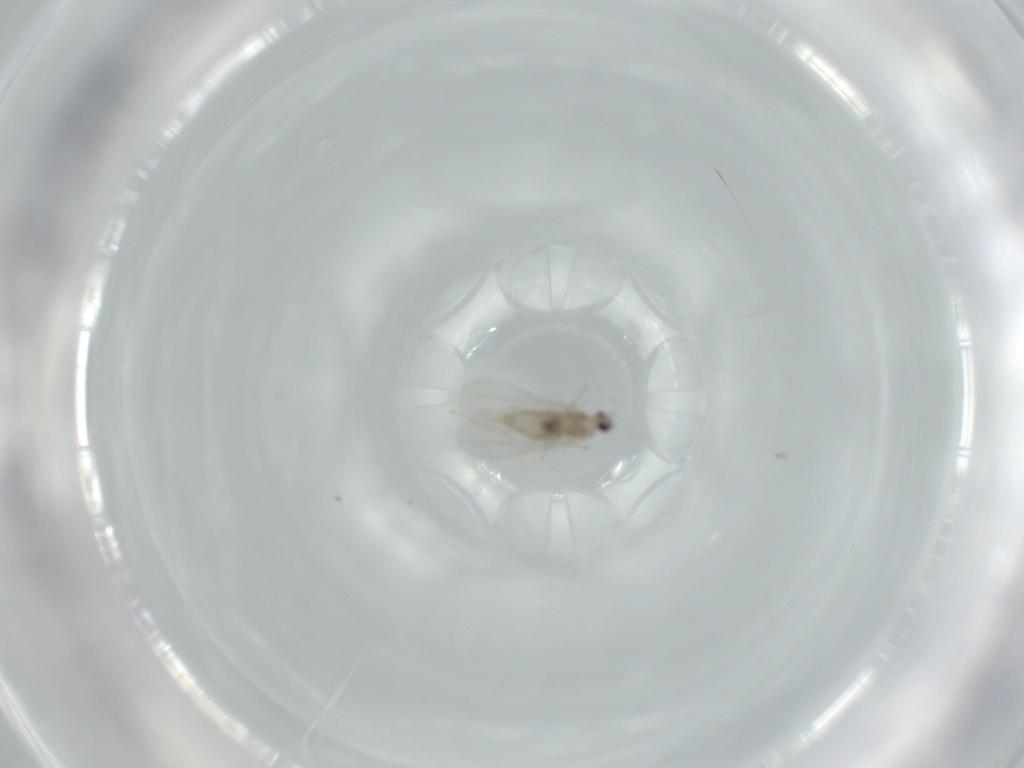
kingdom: Animalia
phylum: Arthropoda
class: Insecta
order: Diptera
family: Cecidomyiidae
